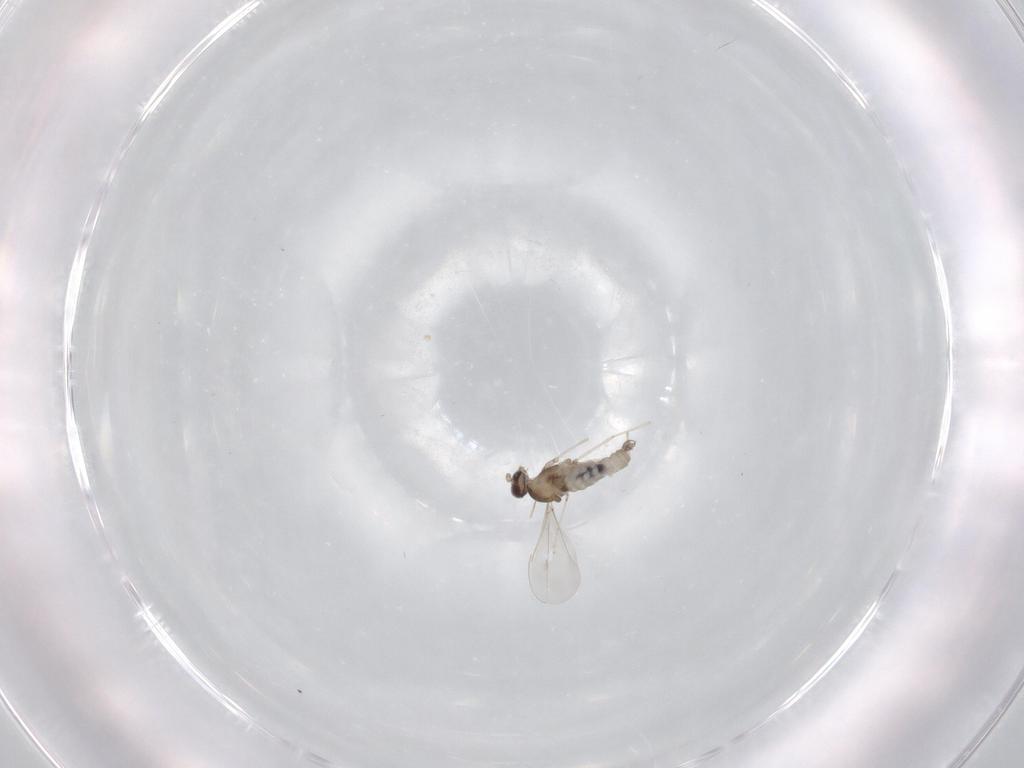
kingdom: Animalia
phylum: Arthropoda
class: Insecta
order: Diptera
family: Cecidomyiidae
